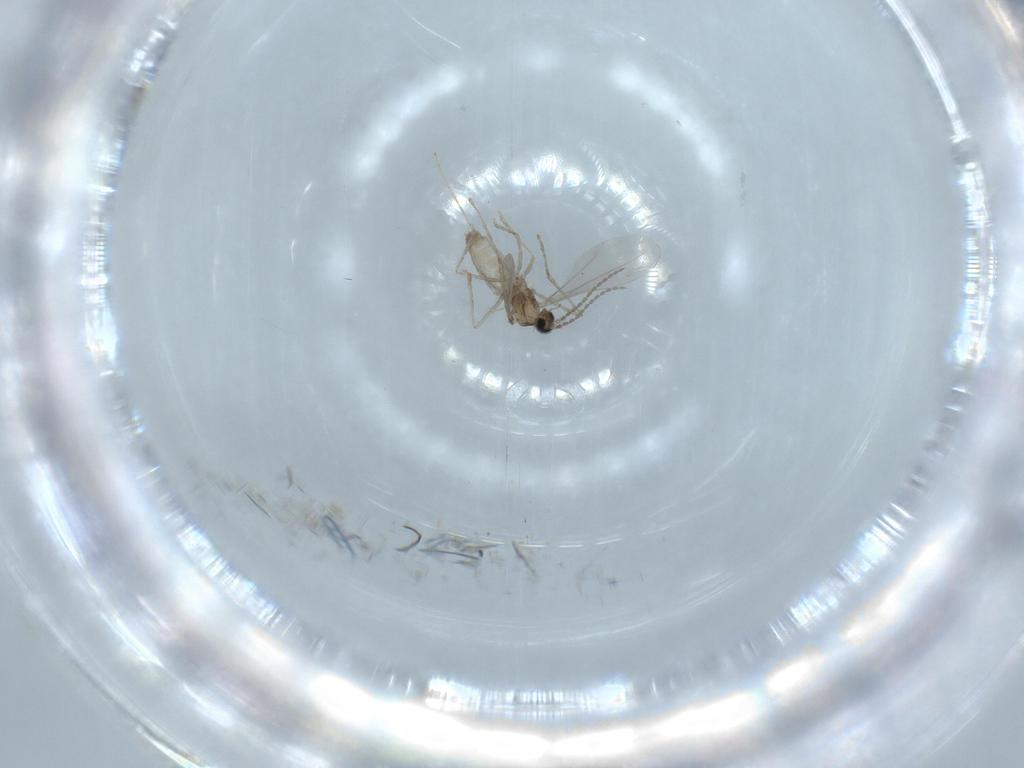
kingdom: Animalia
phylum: Arthropoda
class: Insecta
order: Diptera
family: Cecidomyiidae
